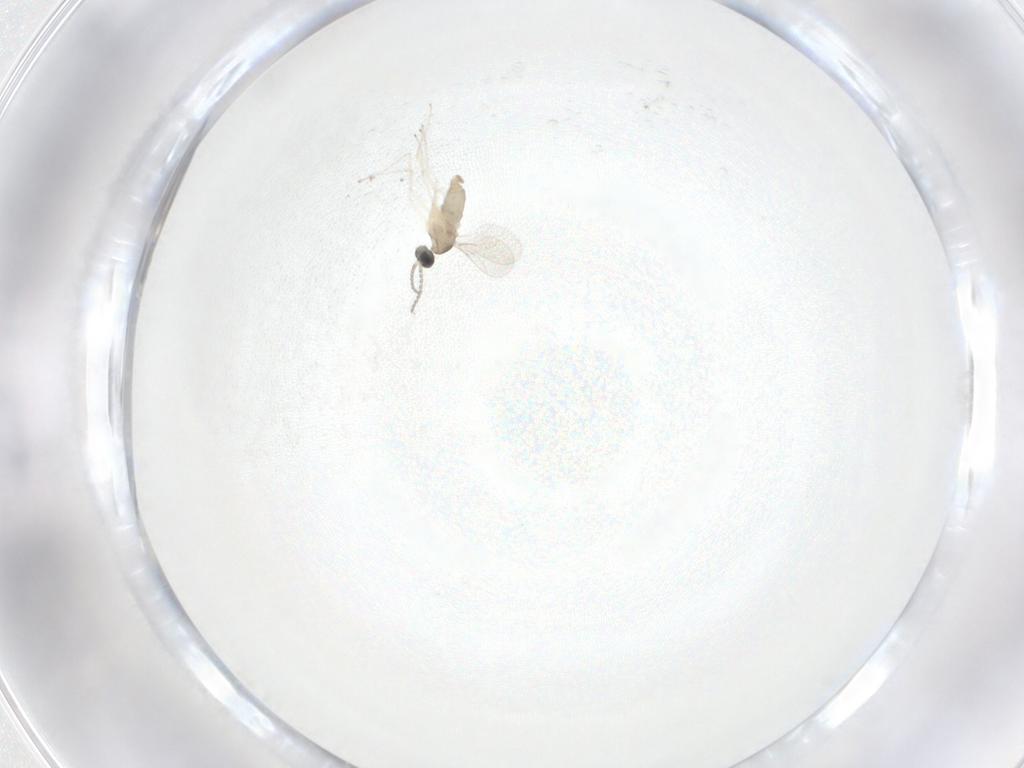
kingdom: Animalia
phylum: Arthropoda
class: Insecta
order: Diptera
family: Cecidomyiidae
